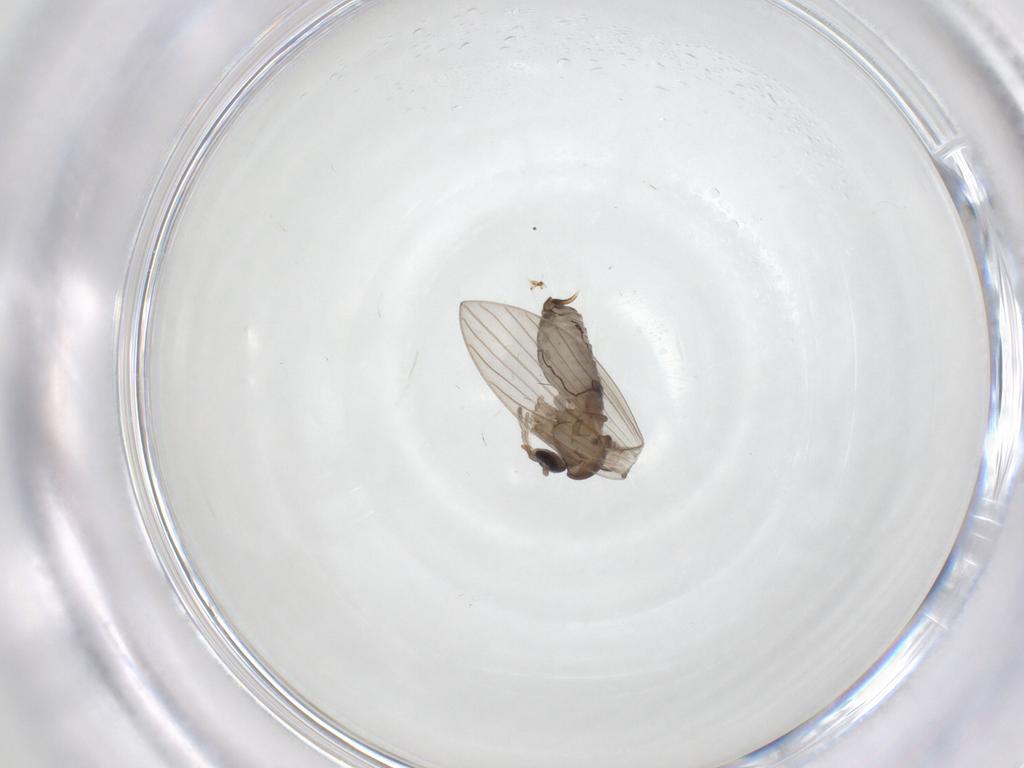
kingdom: Animalia
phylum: Arthropoda
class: Insecta
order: Diptera
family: Psychodidae
